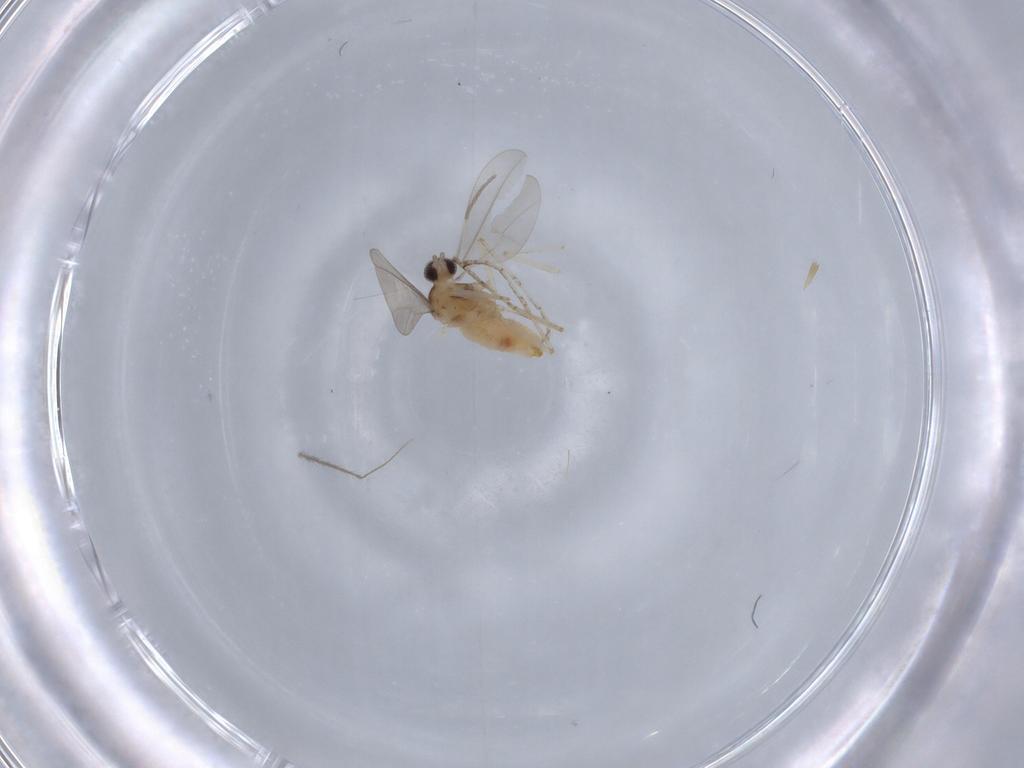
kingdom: Animalia
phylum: Arthropoda
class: Insecta
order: Diptera
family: Cecidomyiidae
